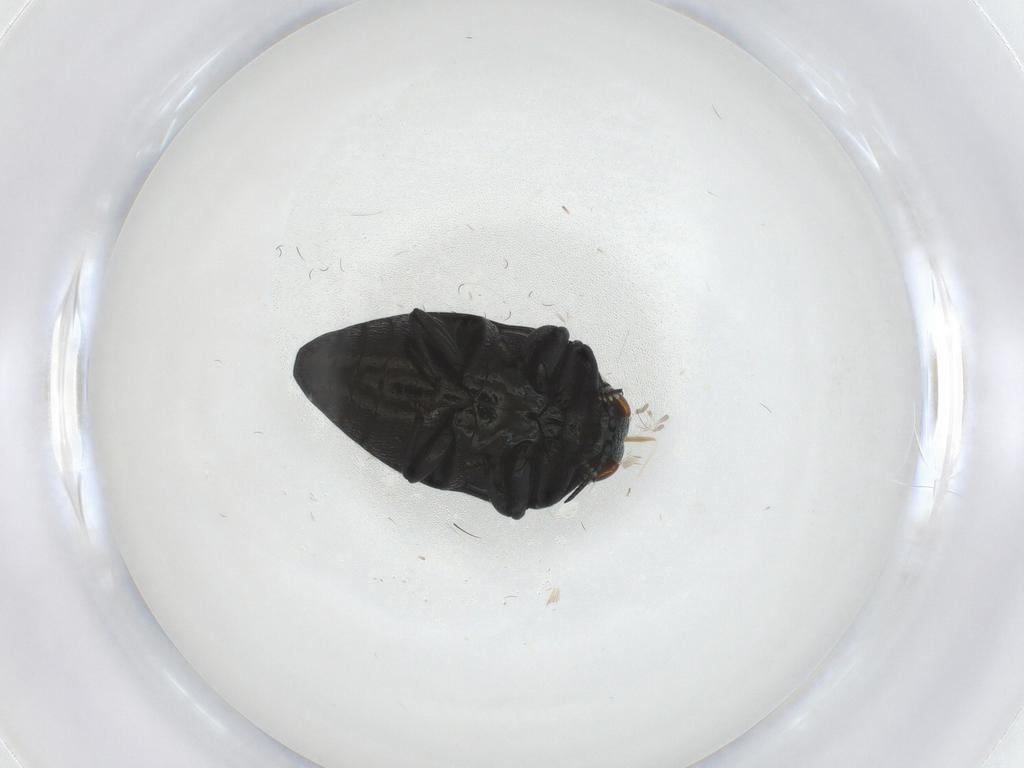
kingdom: Animalia
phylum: Arthropoda
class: Insecta
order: Coleoptera
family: Buprestidae
